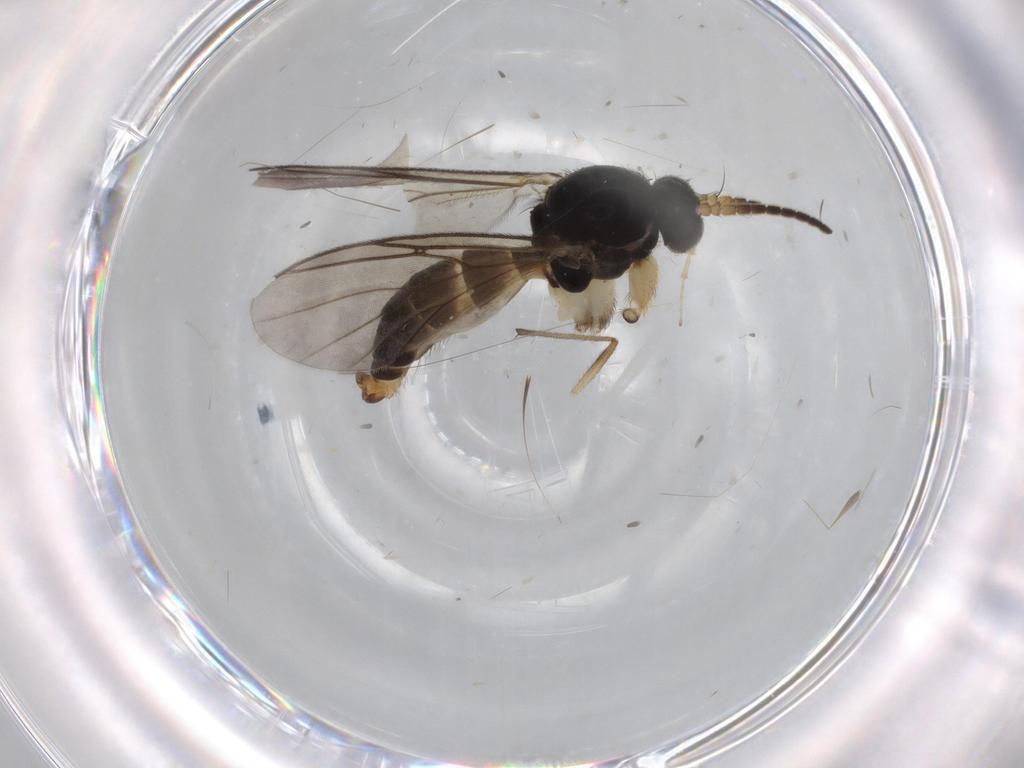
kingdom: Animalia
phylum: Arthropoda
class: Insecta
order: Diptera
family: Ceratopogonidae
